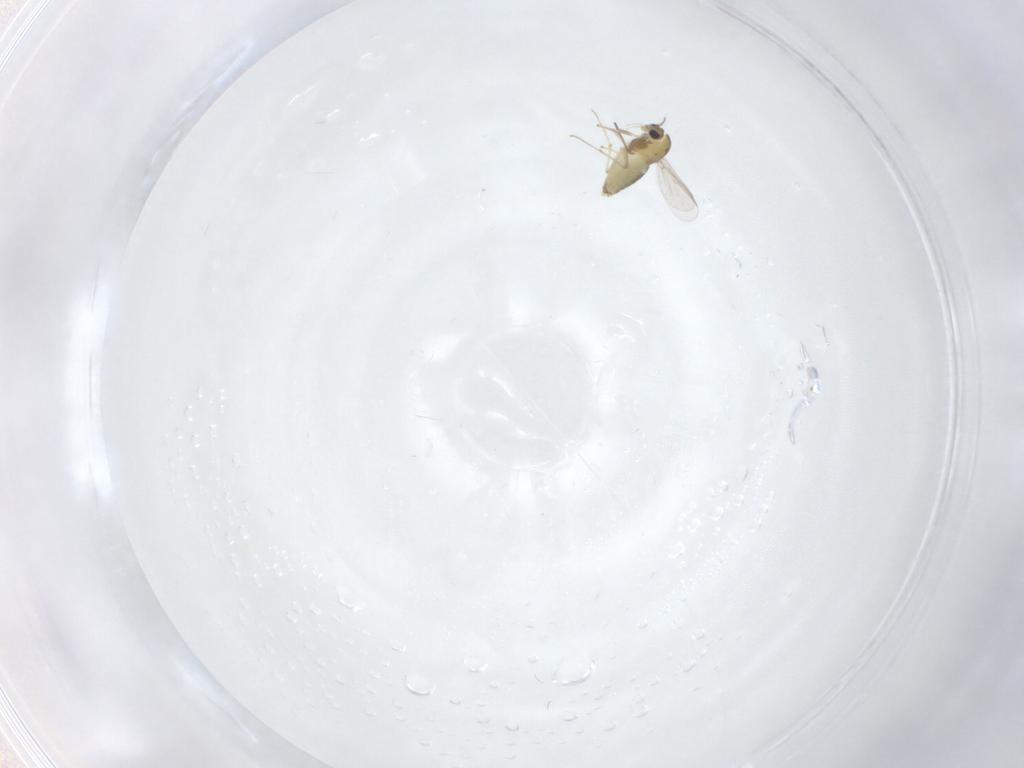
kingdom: Animalia
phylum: Arthropoda
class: Insecta
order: Diptera
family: Chironomidae
